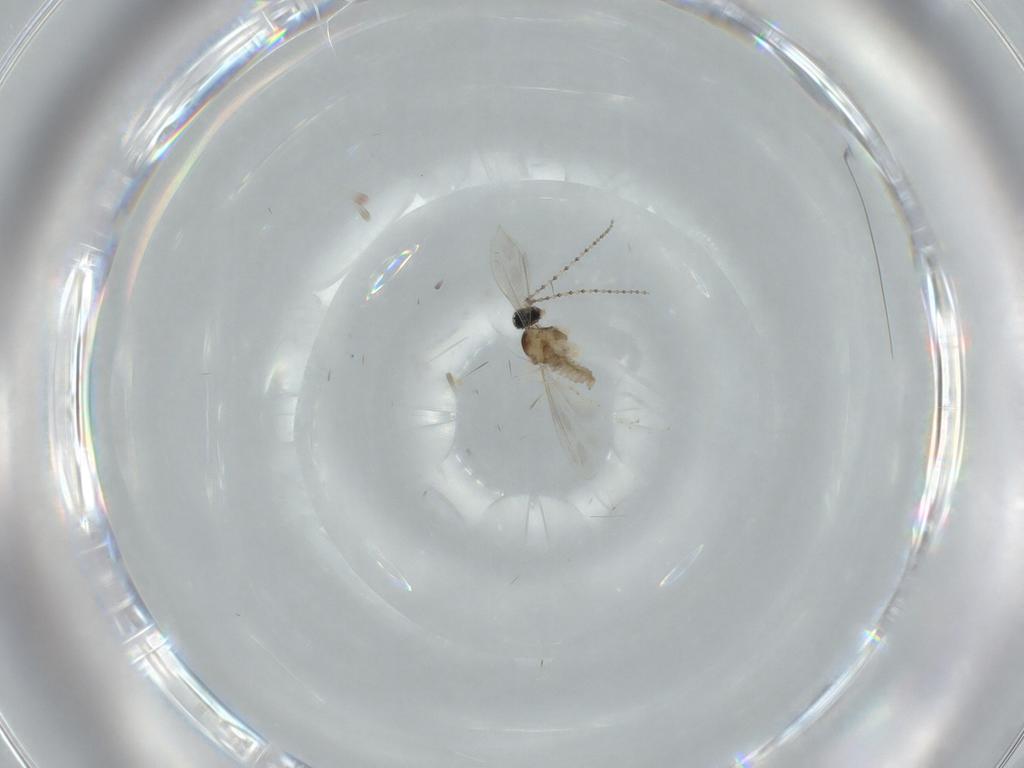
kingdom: Animalia
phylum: Arthropoda
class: Insecta
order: Diptera
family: Cecidomyiidae
